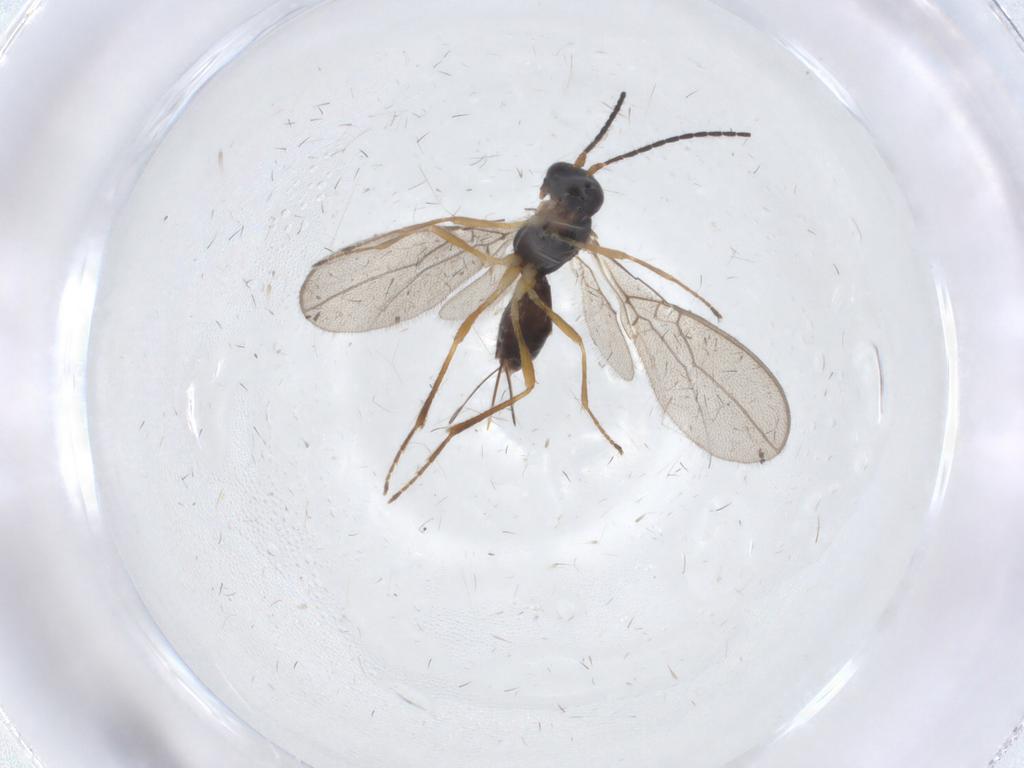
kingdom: Animalia
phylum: Arthropoda
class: Insecta
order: Hymenoptera
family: Braconidae
